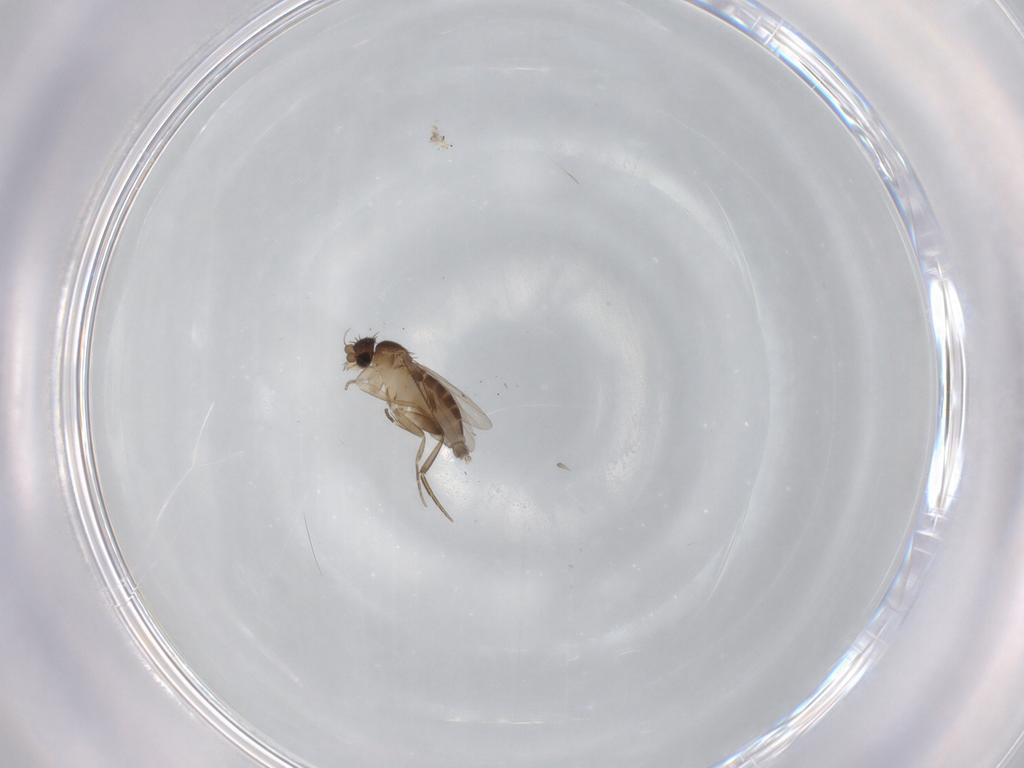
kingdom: Animalia
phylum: Arthropoda
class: Insecta
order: Diptera
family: Phoridae
